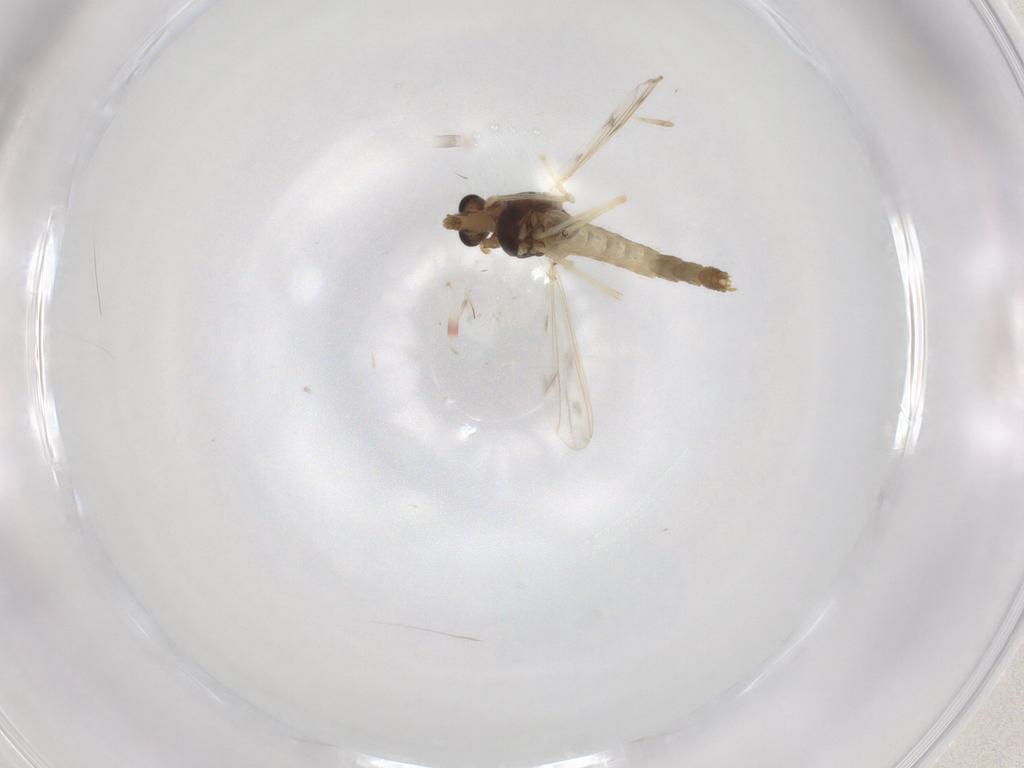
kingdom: Animalia
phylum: Arthropoda
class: Insecta
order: Diptera
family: Chironomidae
